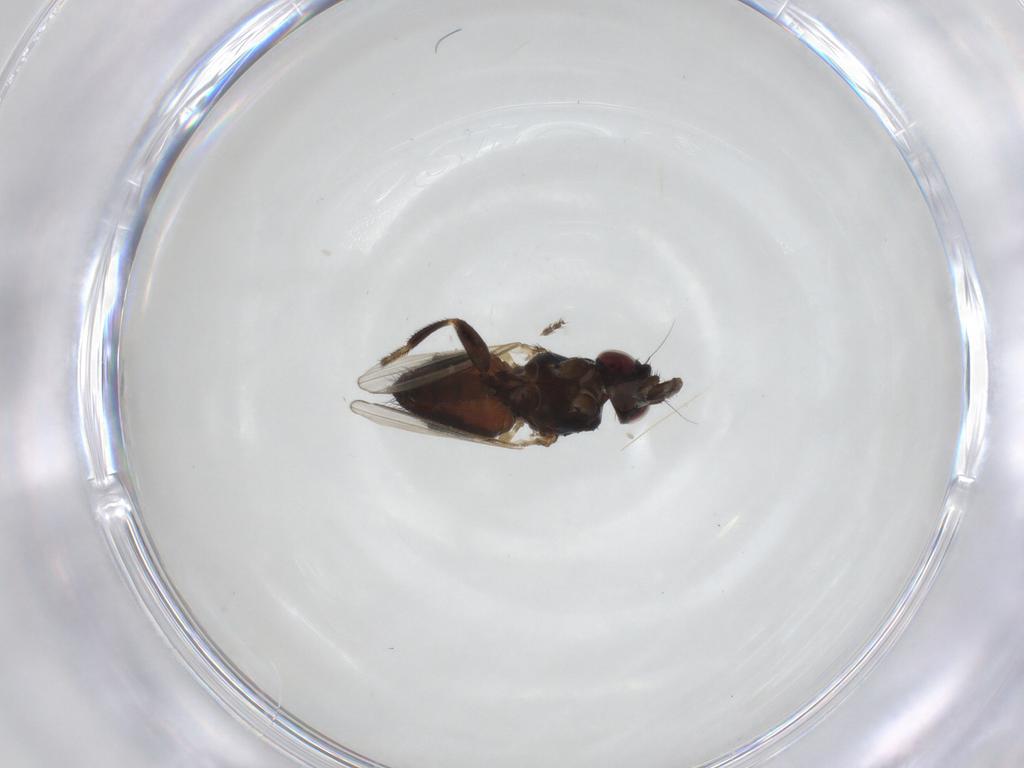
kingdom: Animalia
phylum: Arthropoda
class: Insecta
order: Diptera
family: Milichiidae
